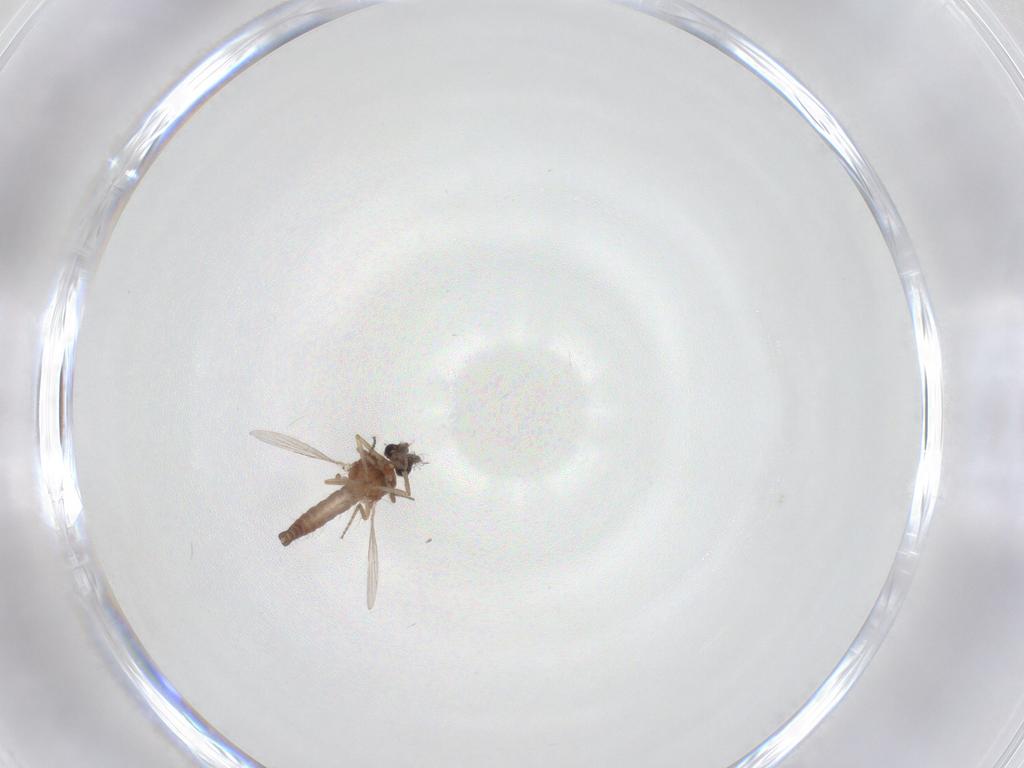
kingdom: Animalia
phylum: Arthropoda
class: Insecta
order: Diptera
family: Ceratopogonidae
